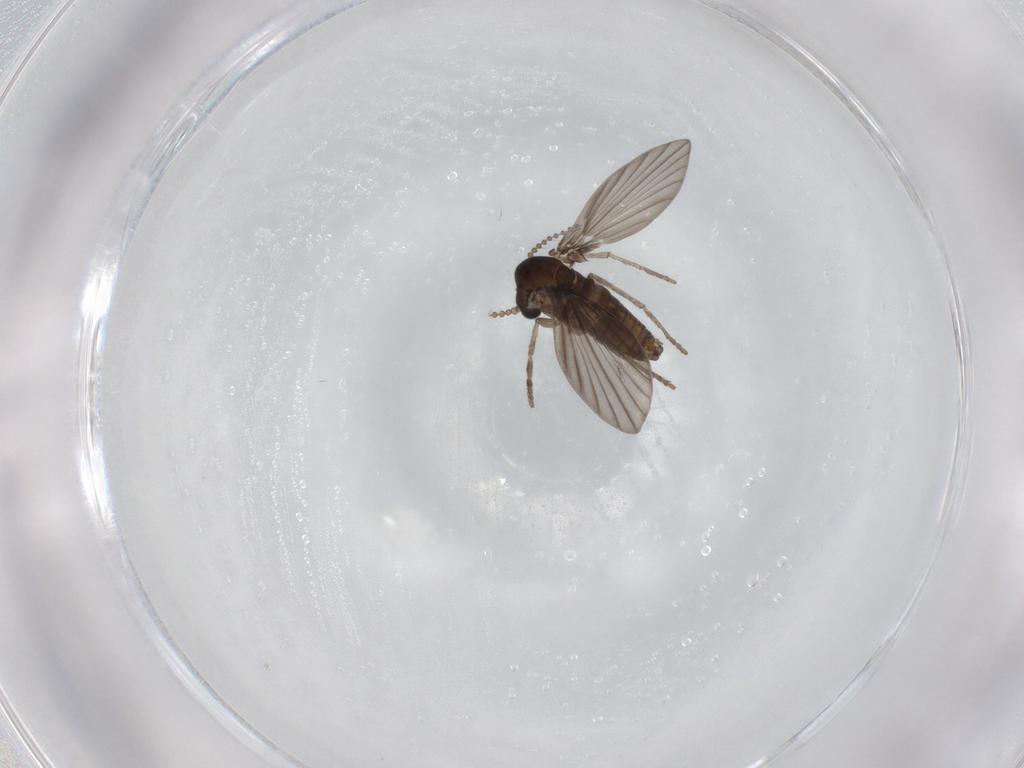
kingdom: Animalia
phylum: Arthropoda
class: Insecta
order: Diptera
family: Psychodidae
